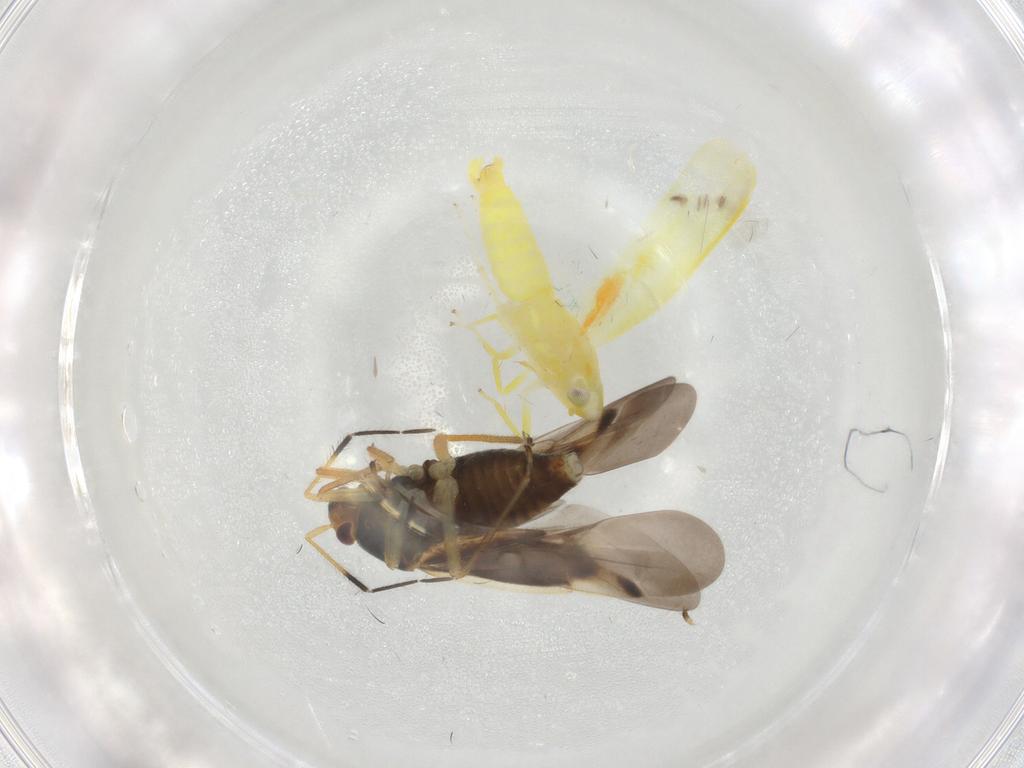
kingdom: Animalia
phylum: Arthropoda
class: Insecta
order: Hemiptera
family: Cicadellidae
